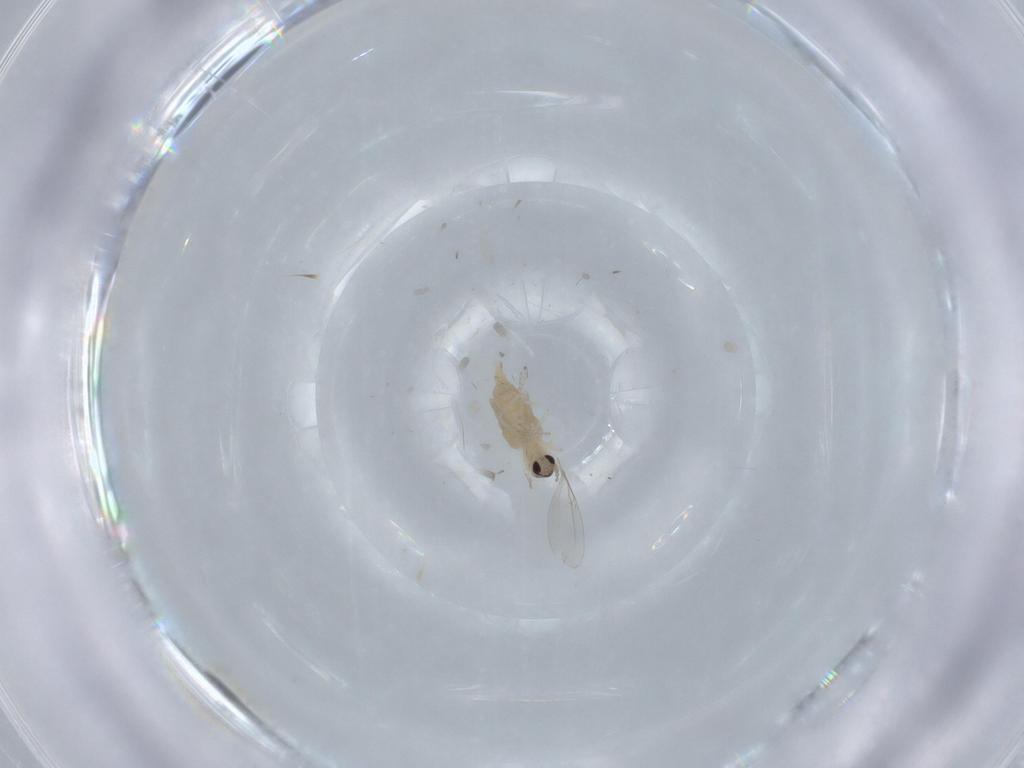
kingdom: Animalia
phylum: Arthropoda
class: Insecta
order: Diptera
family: Cecidomyiidae
